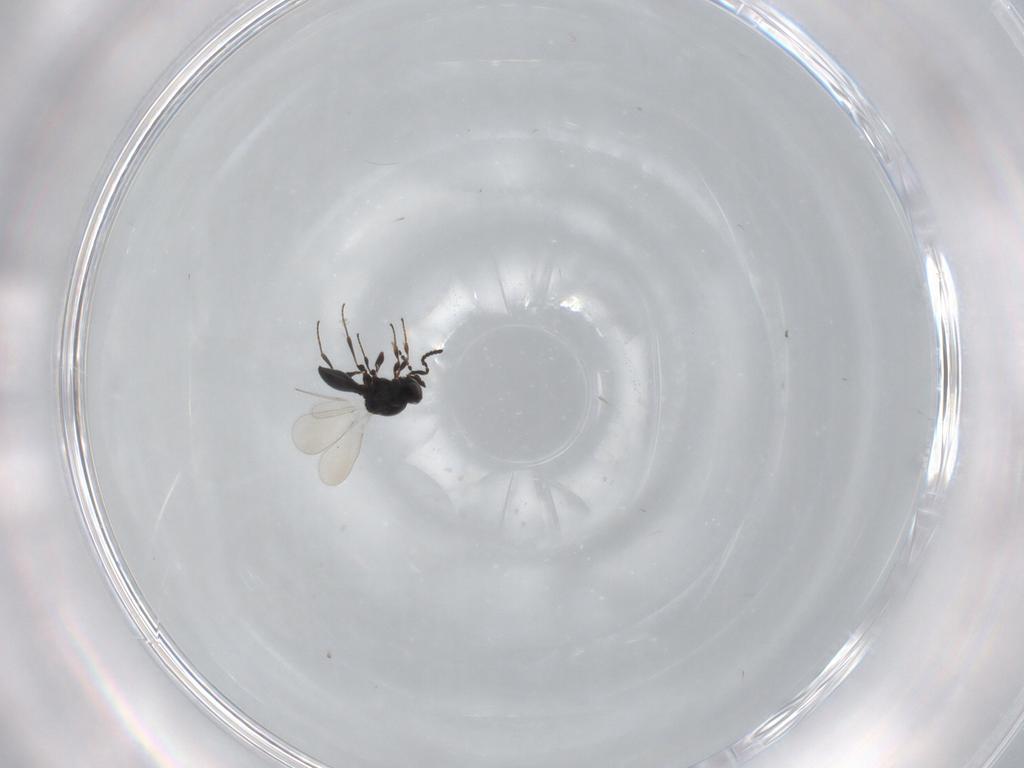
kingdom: Animalia
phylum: Arthropoda
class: Insecta
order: Hymenoptera
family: Platygastridae
